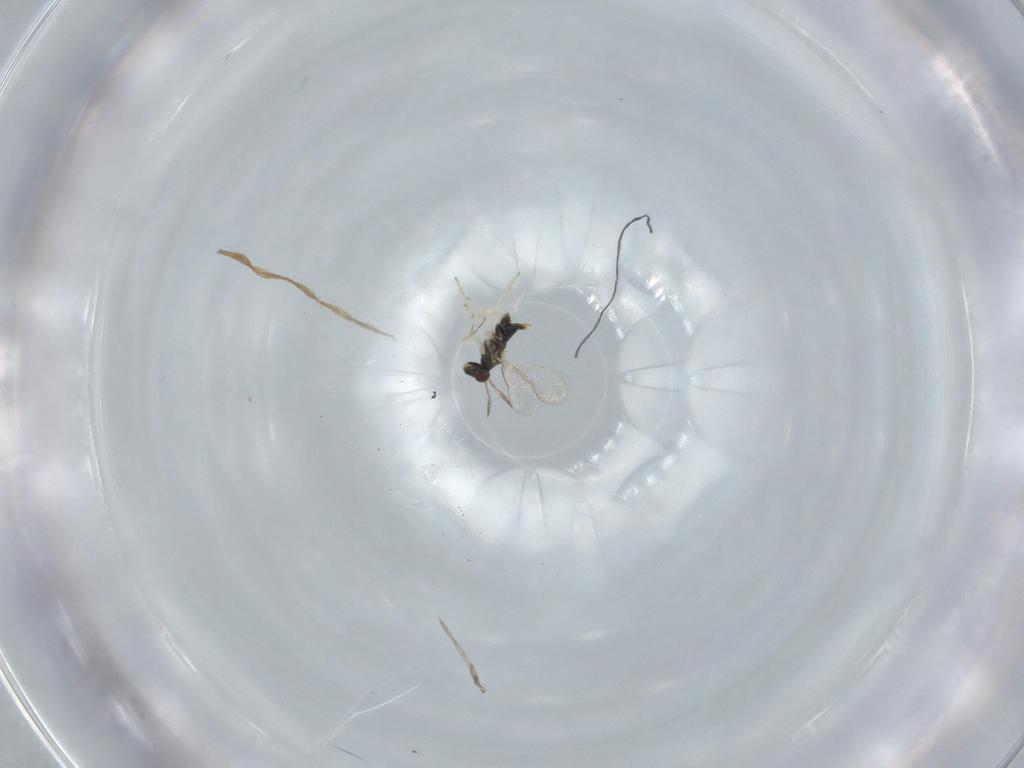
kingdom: Animalia
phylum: Arthropoda
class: Insecta
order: Hymenoptera
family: Aphelinidae
